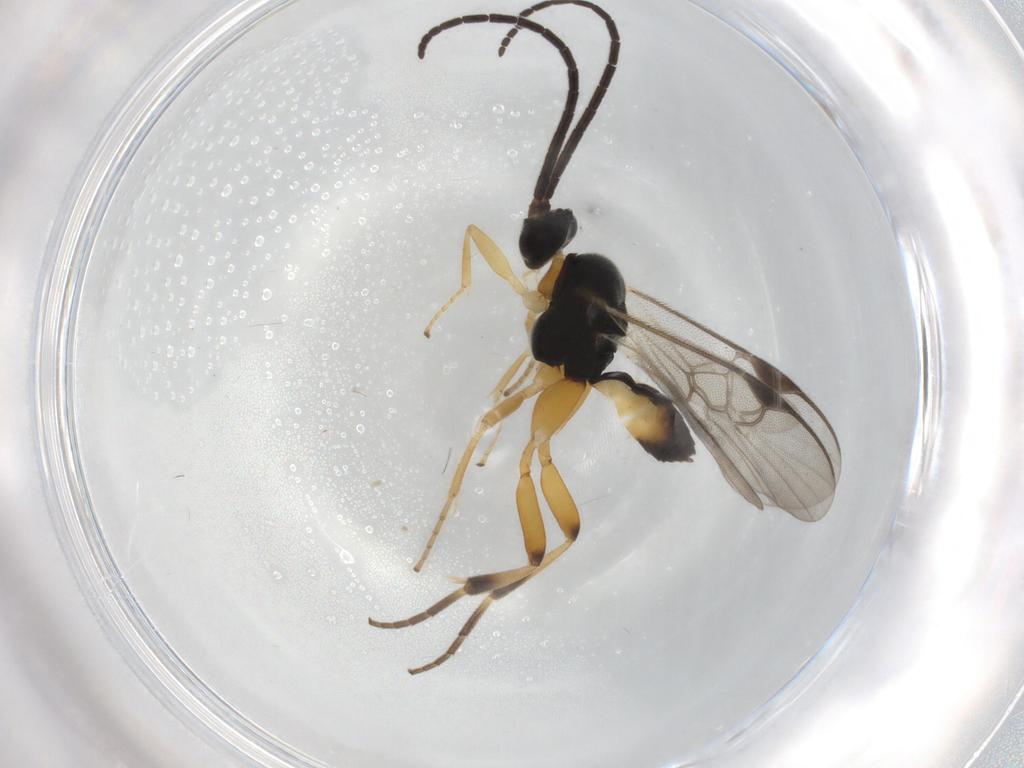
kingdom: Animalia
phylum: Arthropoda
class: Insecta
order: Hymenoptera
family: Braconidae
